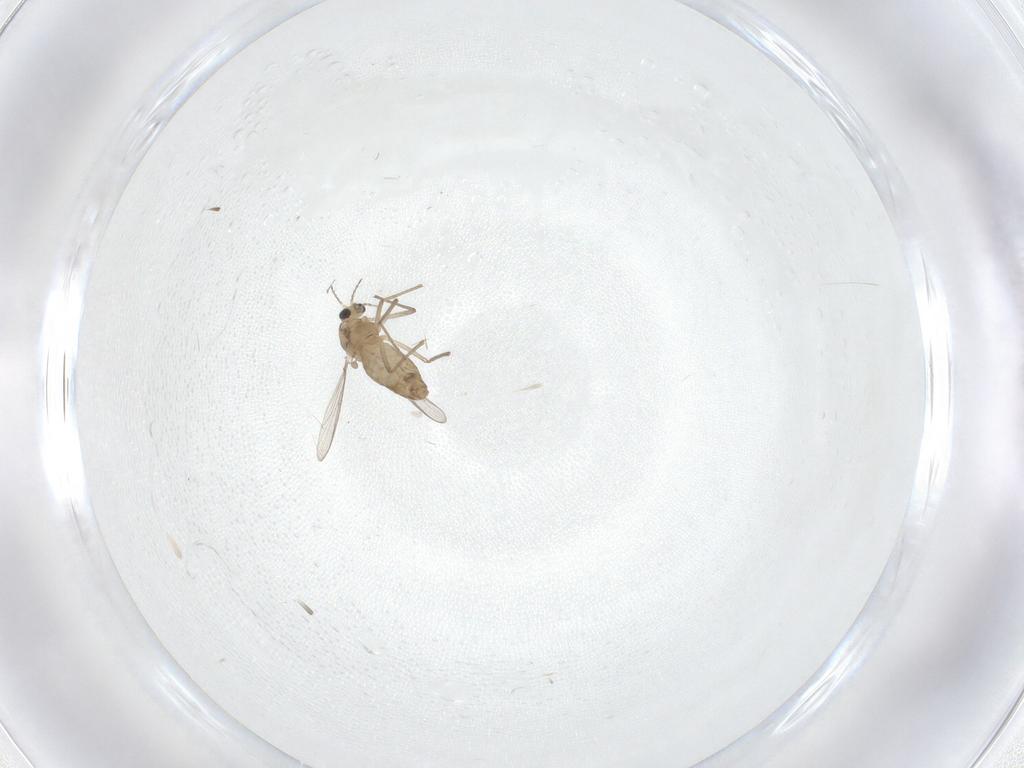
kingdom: Animalia
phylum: Arthropoda
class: Insecta
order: Diptera
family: Chironomidae
